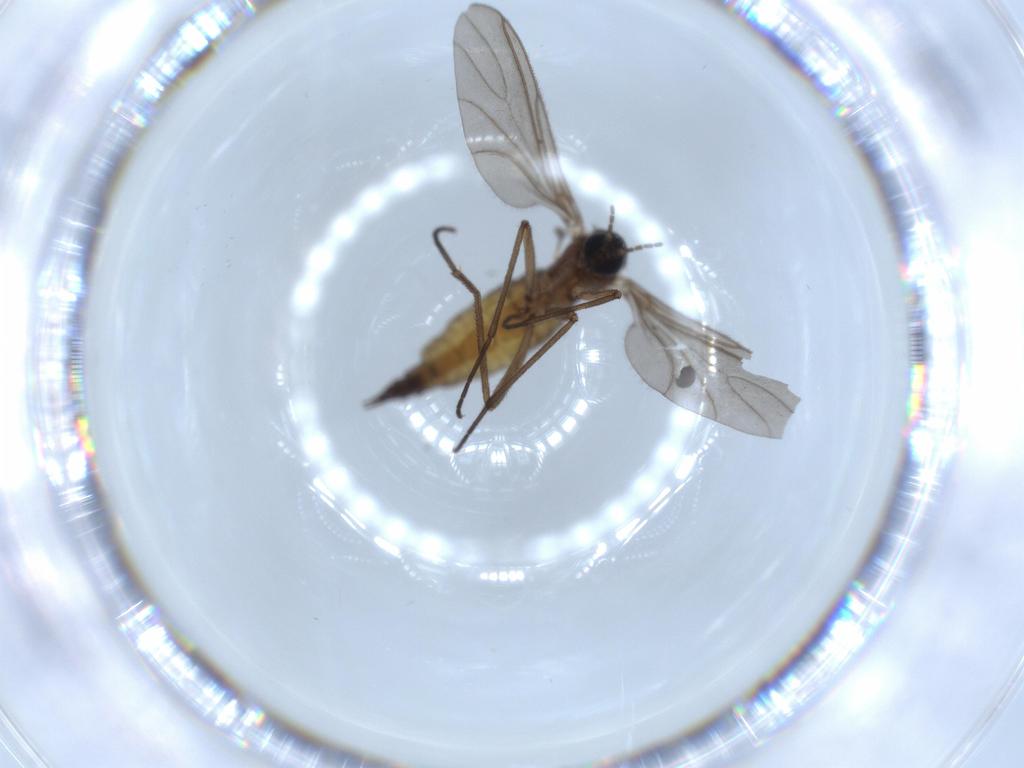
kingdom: Animalia
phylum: Arthropoda
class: Insecta
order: Diptera
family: Sciaridae
